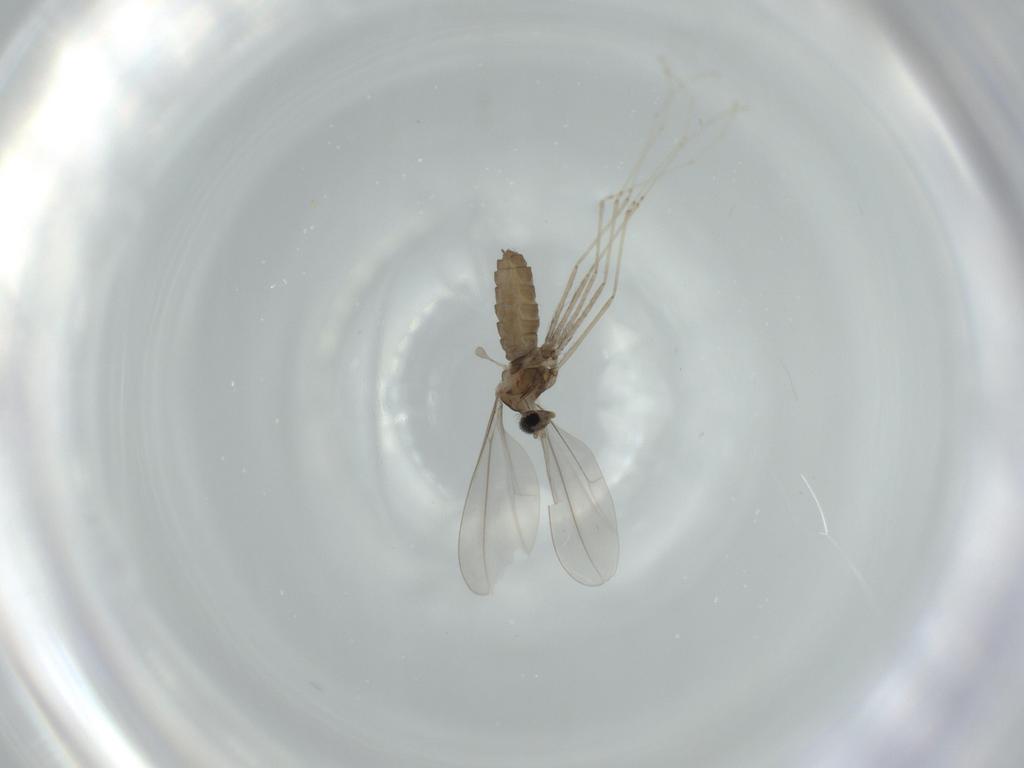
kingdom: Animalia
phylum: Arthropoda
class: Insecta
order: Diptera
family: Cecidomyiidae
